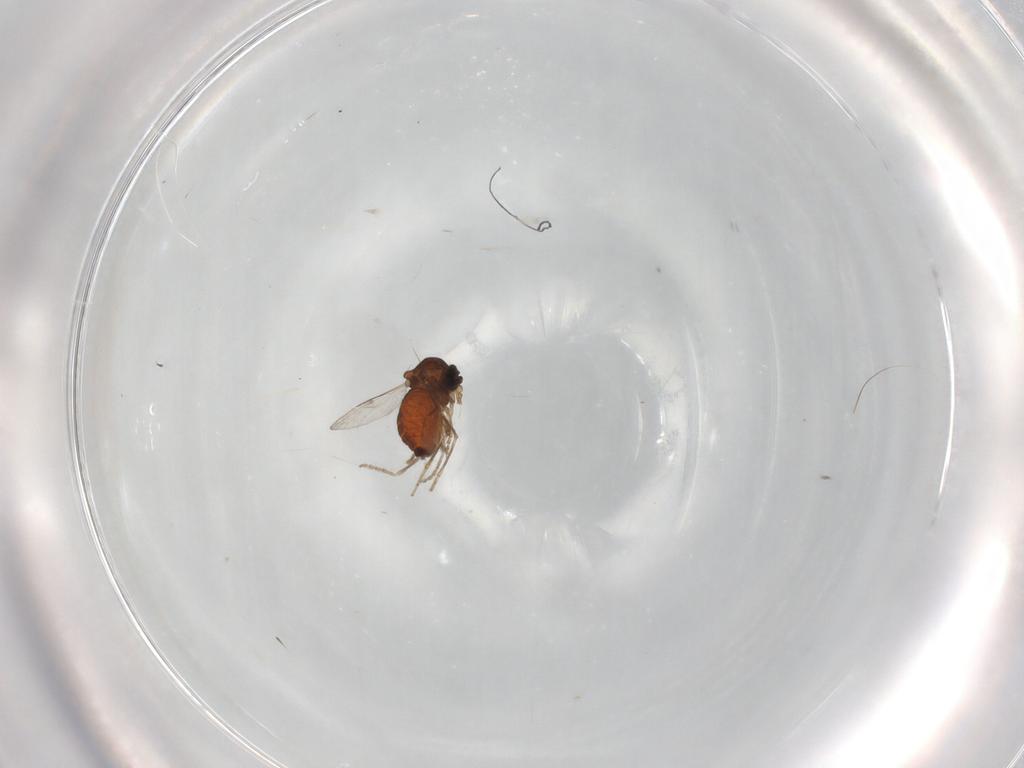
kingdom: Animalia
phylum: Arthropoda
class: Insecta
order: Diptera
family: Ceratopogonidae
